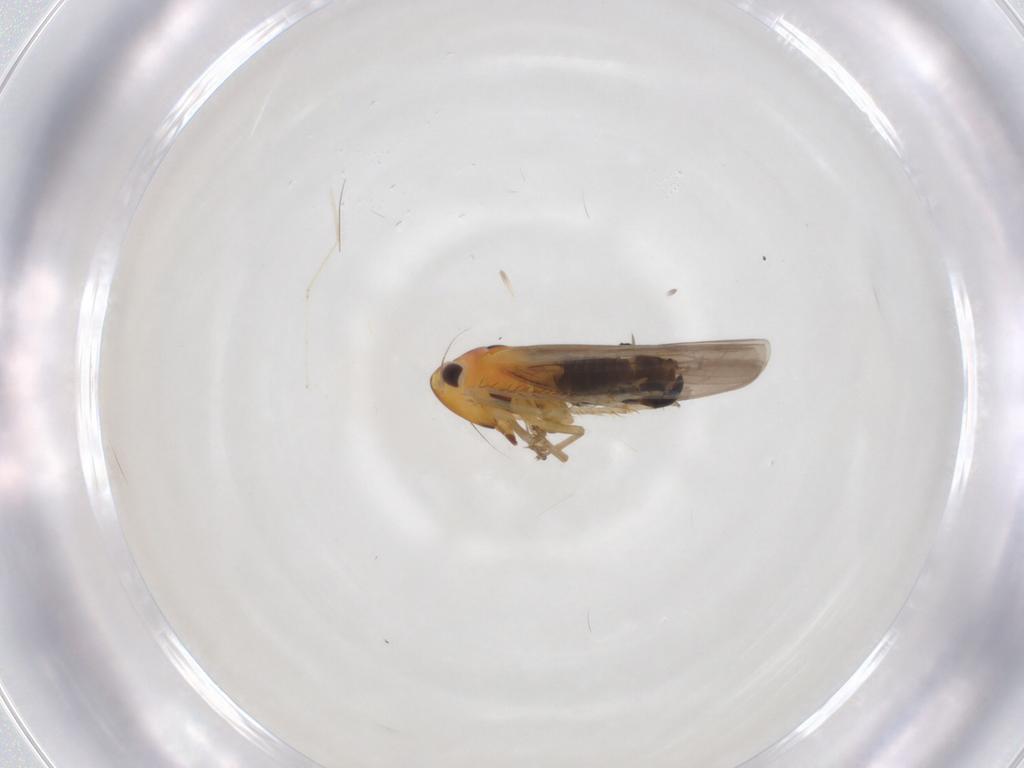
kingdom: Animalia
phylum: Arthropoda
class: Insecta
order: Hemiptera
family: Cicadellidae
